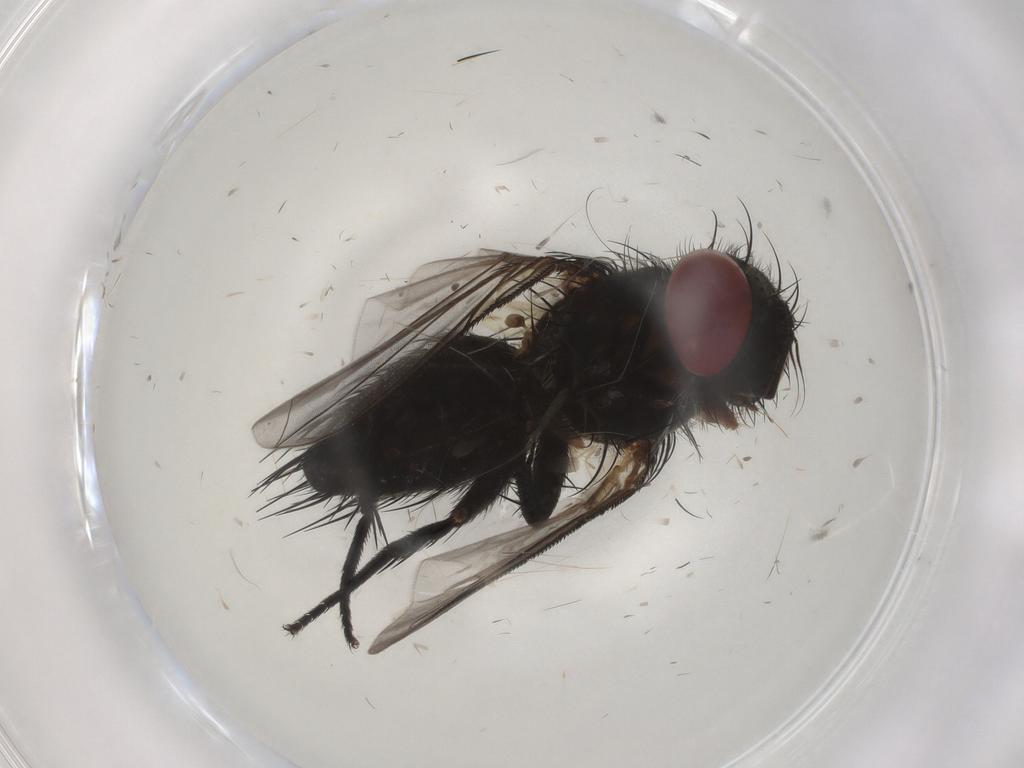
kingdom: Animalia
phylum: Arthropoda
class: Insecta
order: Diptera
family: Tachinidae
